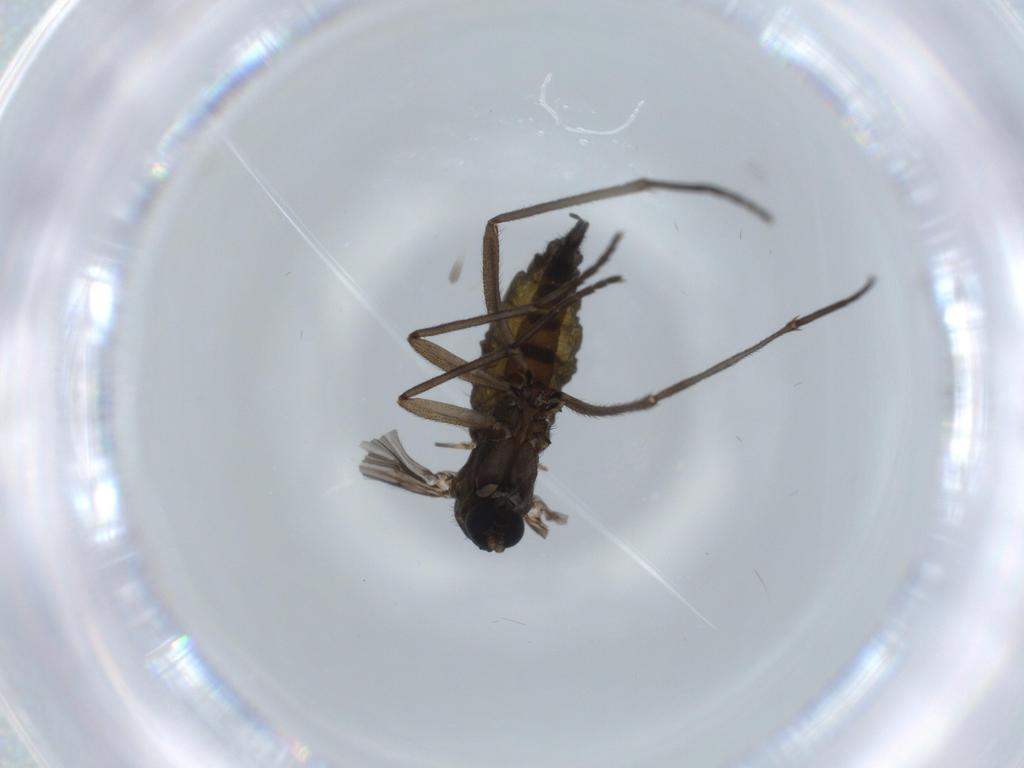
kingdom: Animalia
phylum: Arthropoda
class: Insecta
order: Diptera
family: Sciaridae
